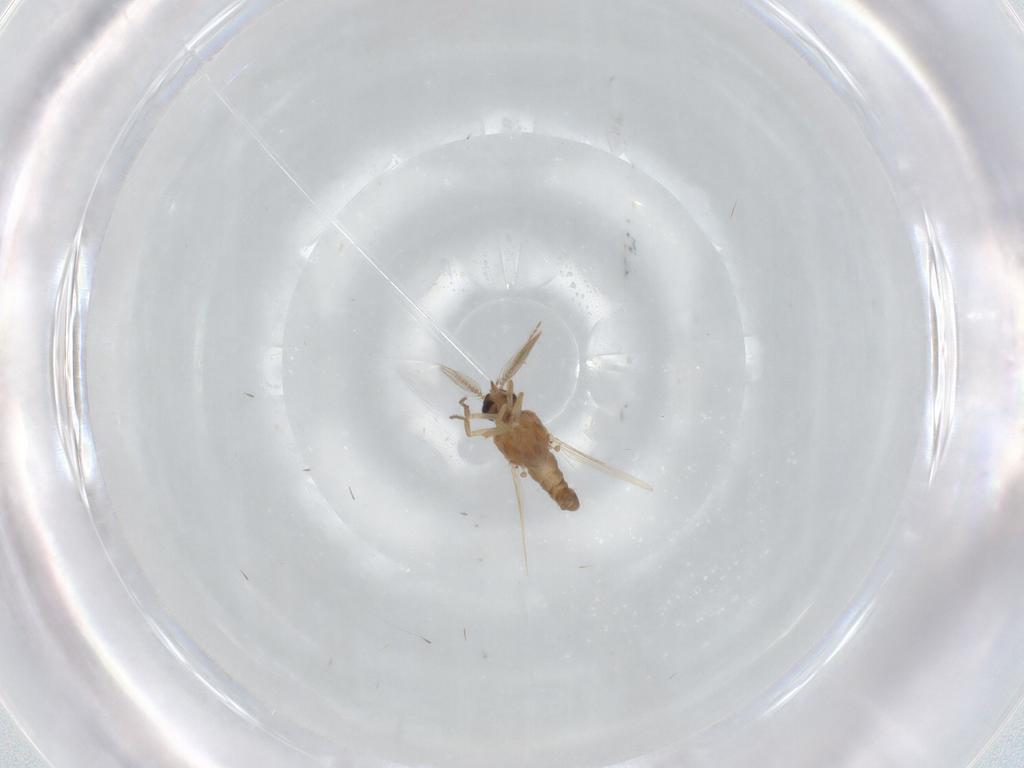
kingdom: Animalia
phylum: Arthropoda
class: Insecta
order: Diptera
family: Ceratopogonidae
